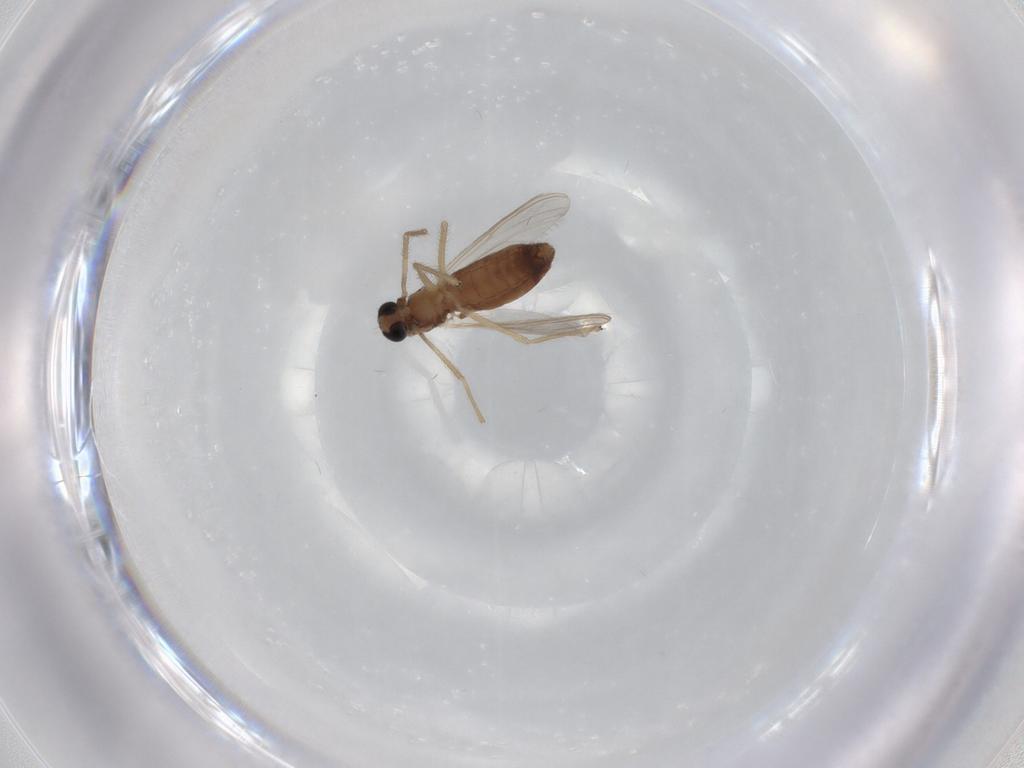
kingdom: Animalia
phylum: Arthropoda
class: Insecta
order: Diptera
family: Chironomidae
